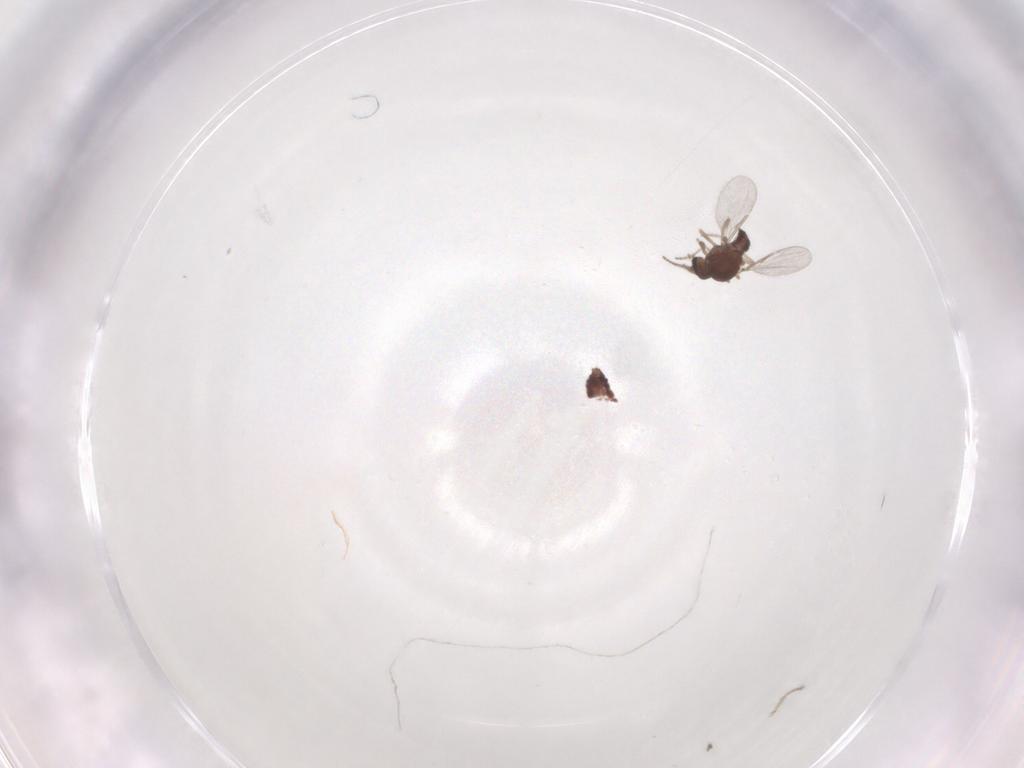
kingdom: Animalia
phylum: Arthropoda
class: Insecta
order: Diptera
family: Ceratopogonidae
